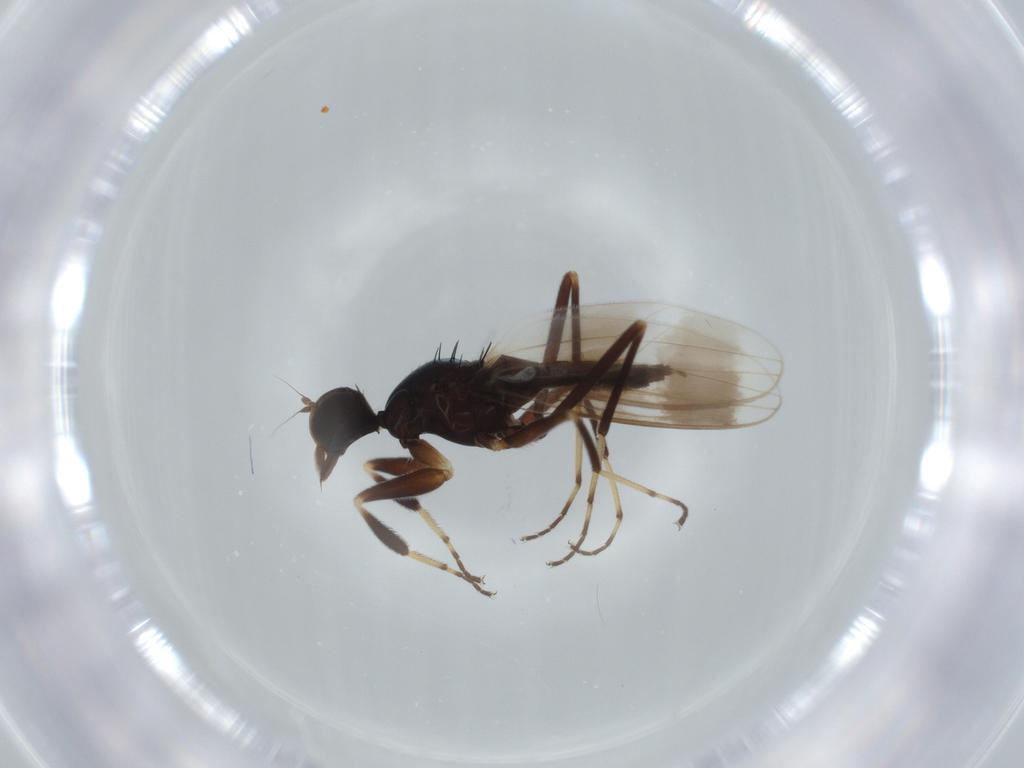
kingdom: Animalia
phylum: Arthropoda
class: Insecta
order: Diptera
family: Hybotidae
